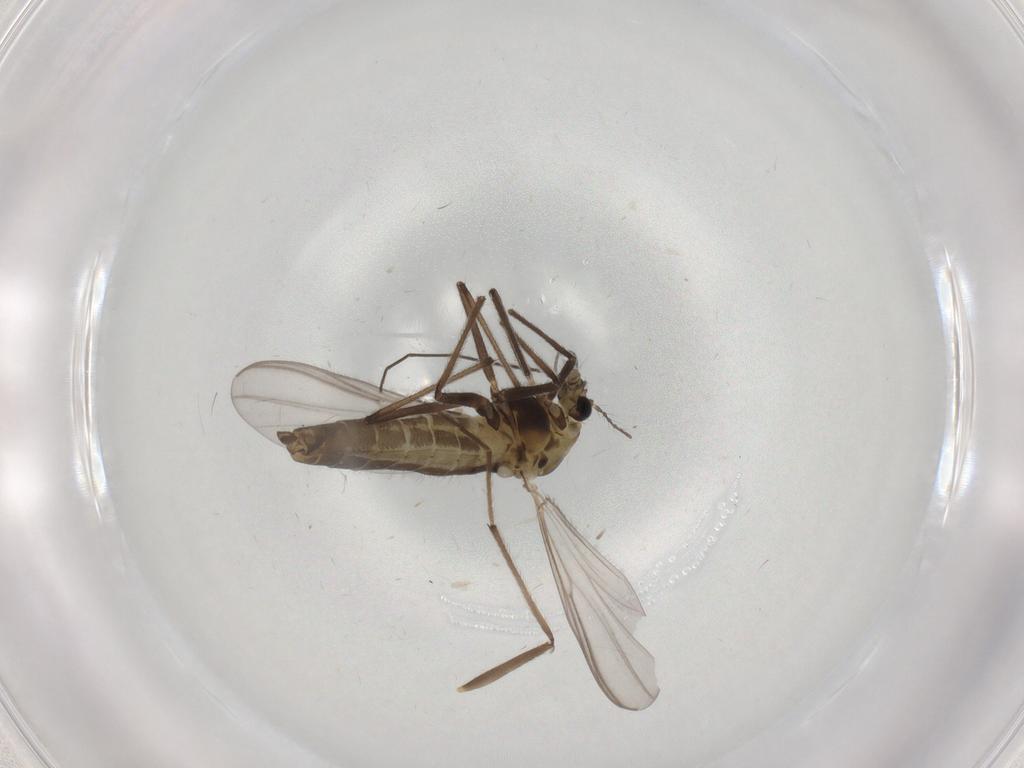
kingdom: Animalia
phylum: Arthropoda
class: Insecta
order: Diptera
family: Chironomidae
